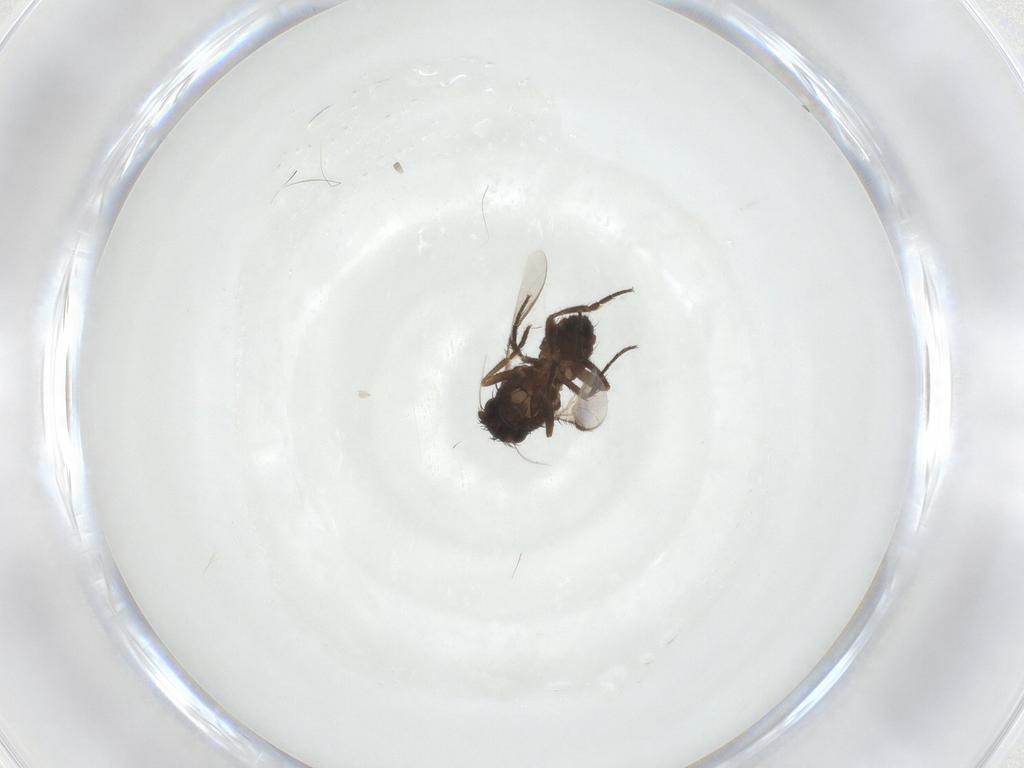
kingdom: Animalia
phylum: Arthropoda
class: Insecta
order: Diptera
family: Sphaeroceridae
